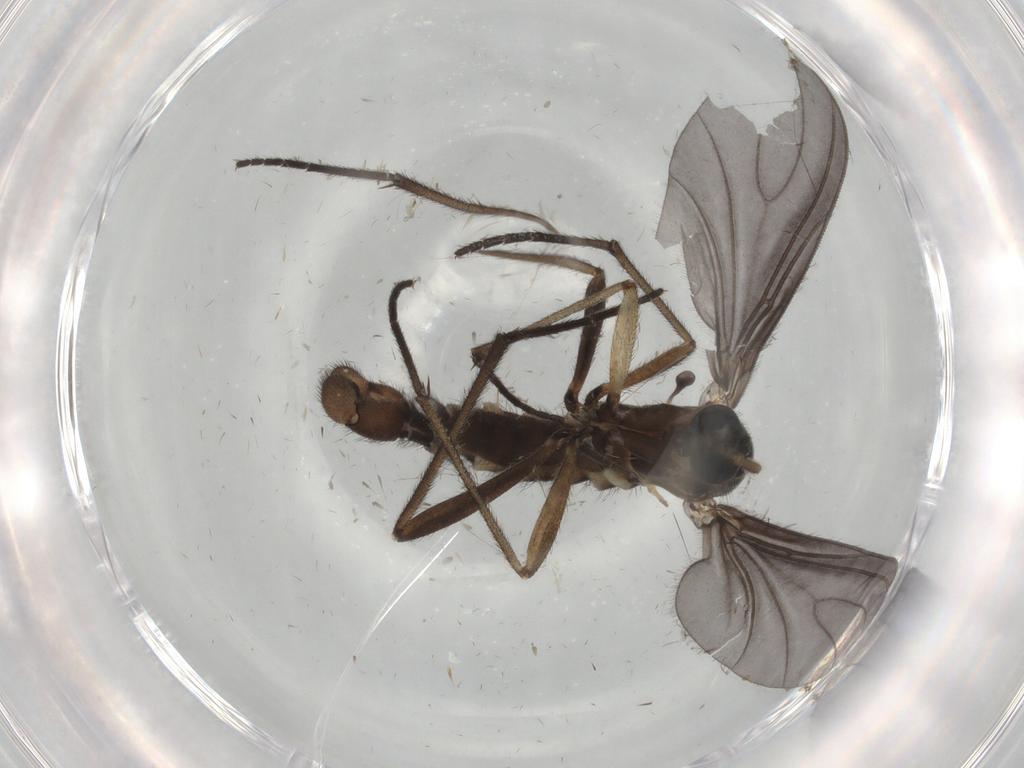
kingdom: Animalia
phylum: Arthropoda
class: Insecta
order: Diptera
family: Sciaridae
